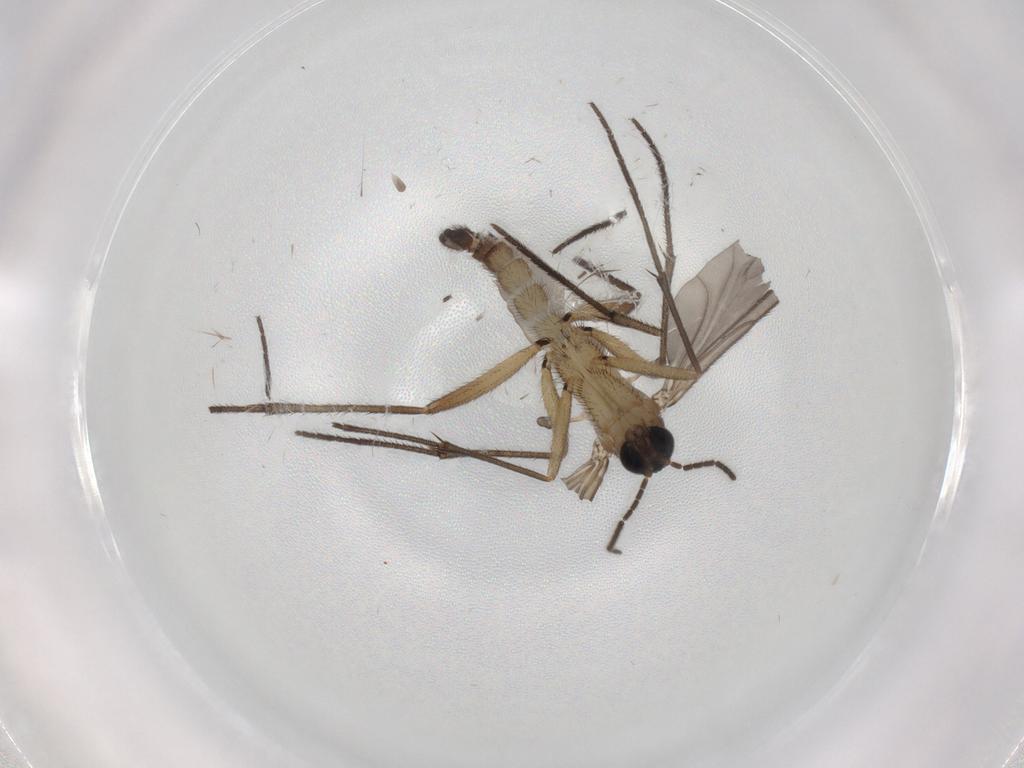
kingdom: Animalia
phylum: Arthropoda
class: Insecta
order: Diptera
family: Sciaridae
